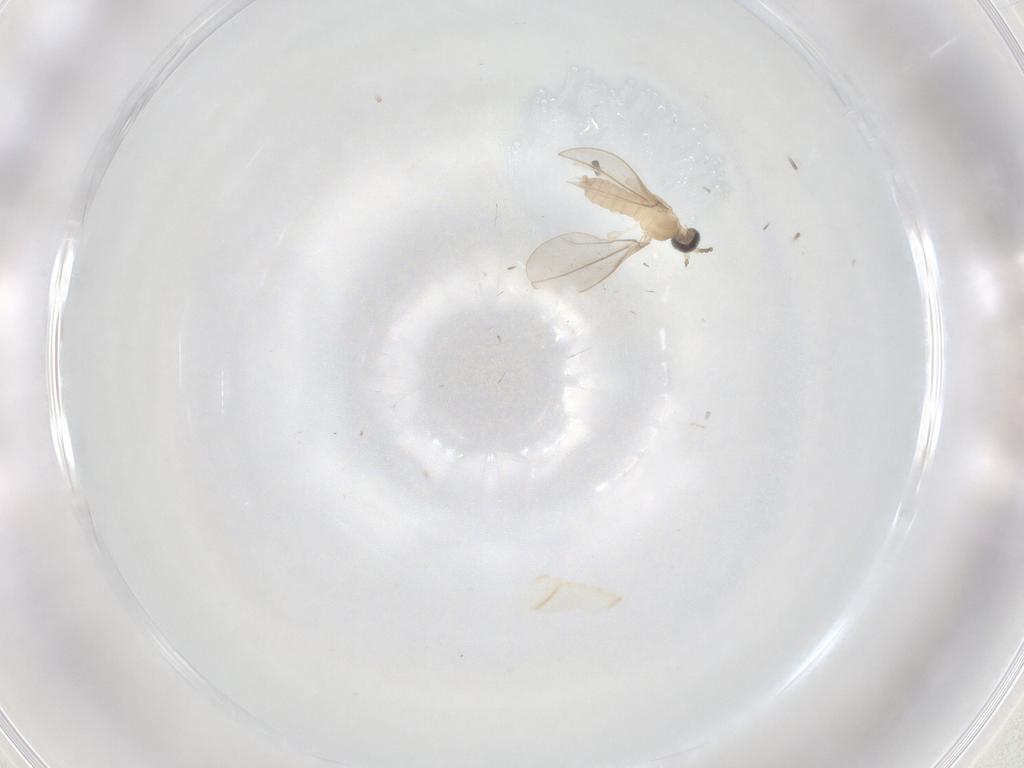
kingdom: Animalia
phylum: Arthropoda
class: Insecta
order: Diptera
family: Cecidomyiidae
